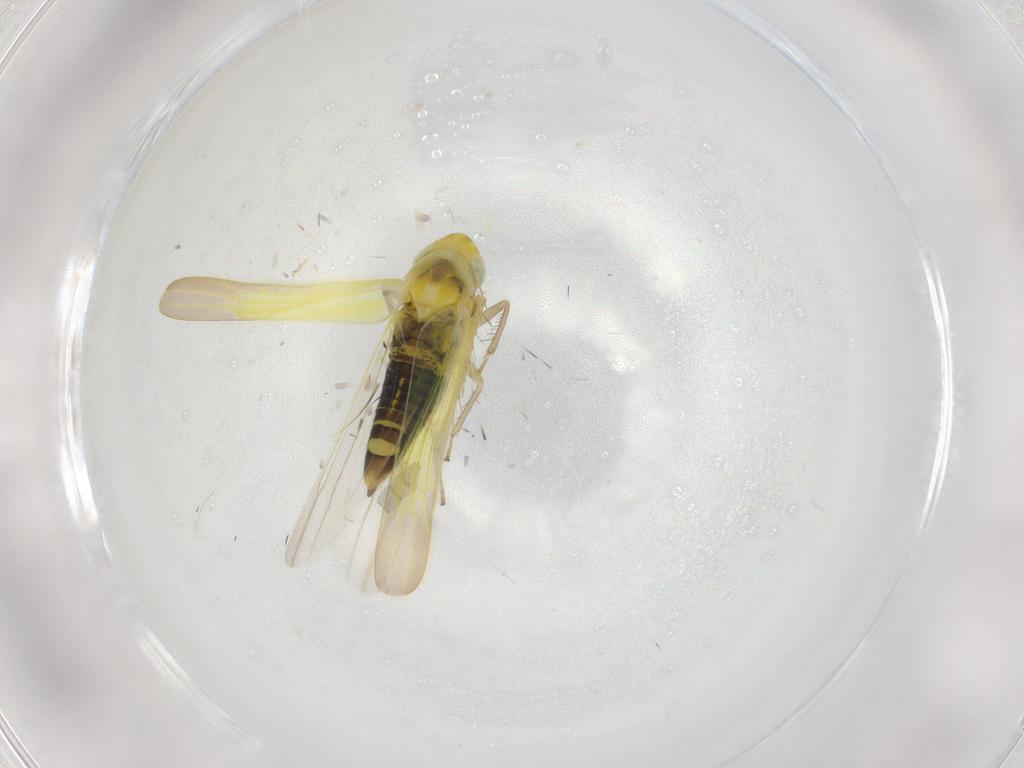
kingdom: Animalia
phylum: Arthropoda
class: Insecta
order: Hemiptera
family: Cicadellidae
